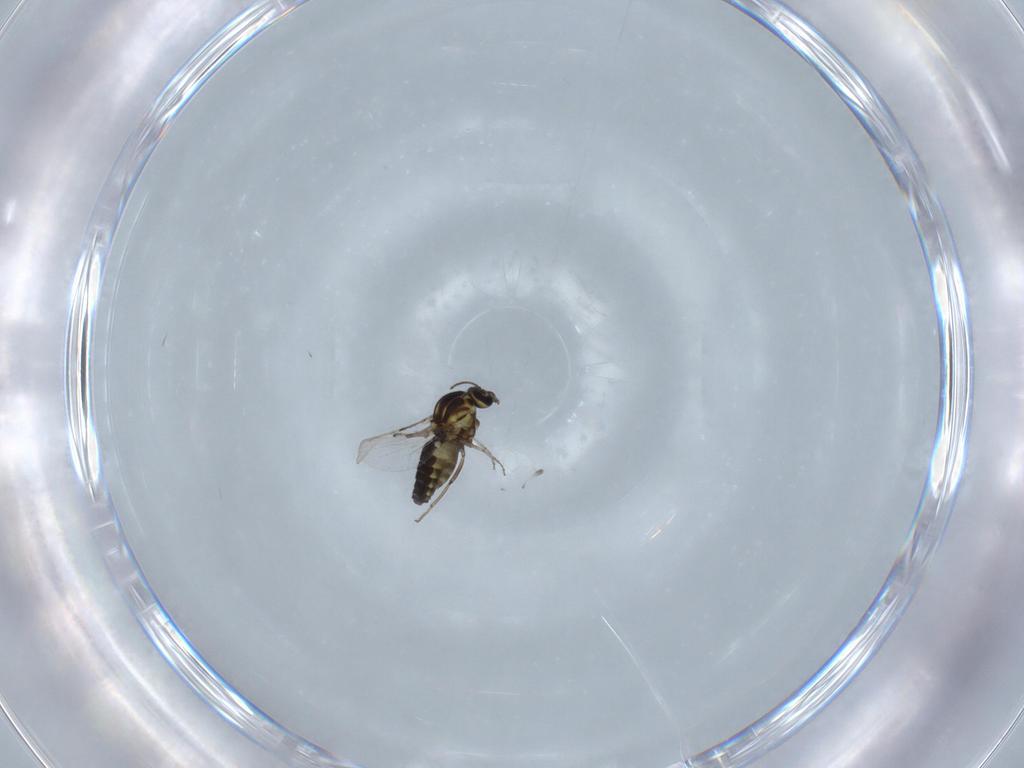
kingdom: Animalia
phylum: Arthropoda
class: Insecta
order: Diptera
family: Ceratopogonidae
